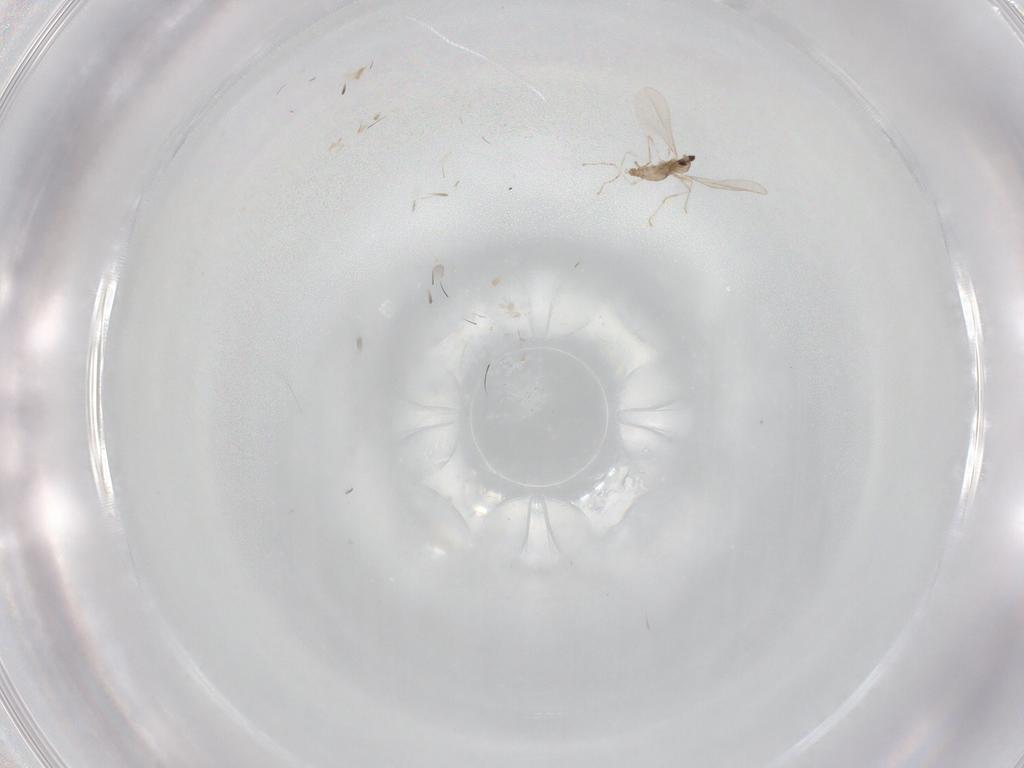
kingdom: Animalia
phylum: Arthropoda
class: Insecta
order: Diptera
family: Cecidomyiidae
